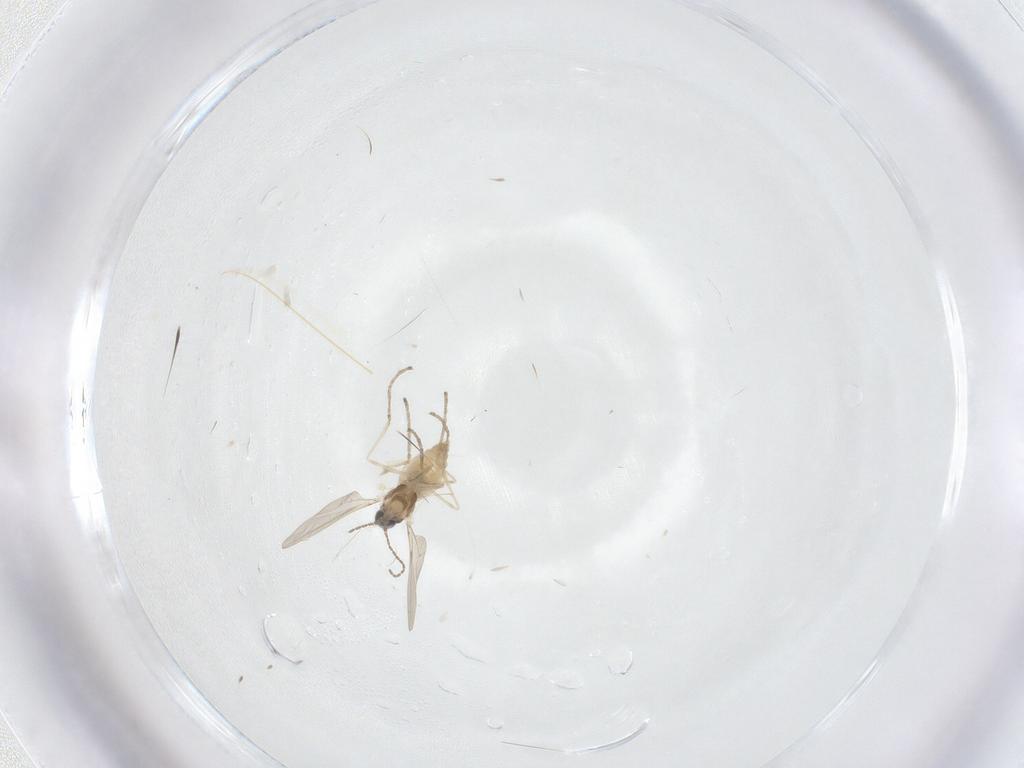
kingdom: Animalia
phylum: Arthropoda
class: Insecta
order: Diptera
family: Cecidomyiidae
